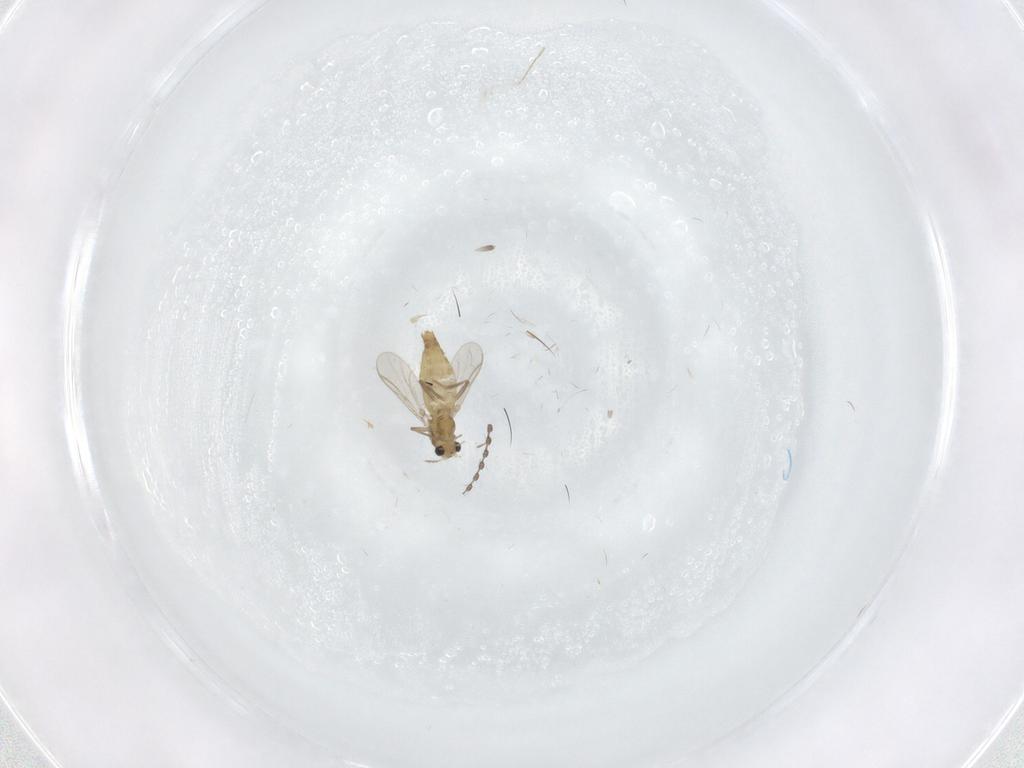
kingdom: Animalia
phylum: Arthropoda
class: Insecta
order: Diptera
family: Chironomidae
